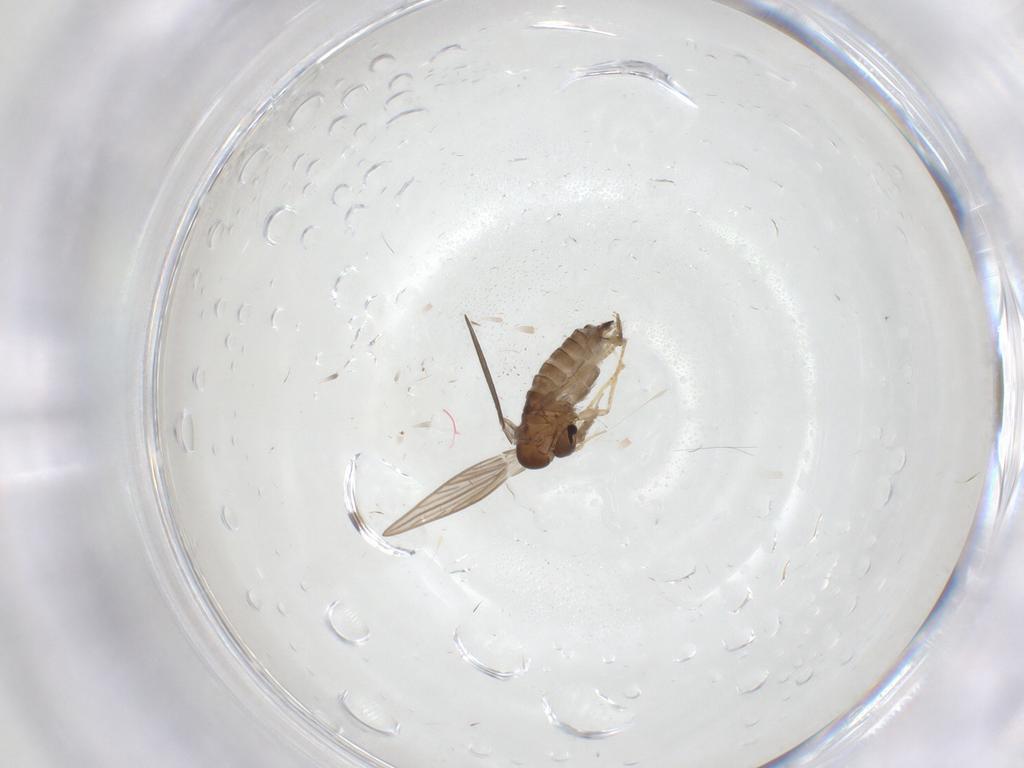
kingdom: Animalia
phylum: Arthropoda
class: Insecta
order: Diptera
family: Psychodidae
